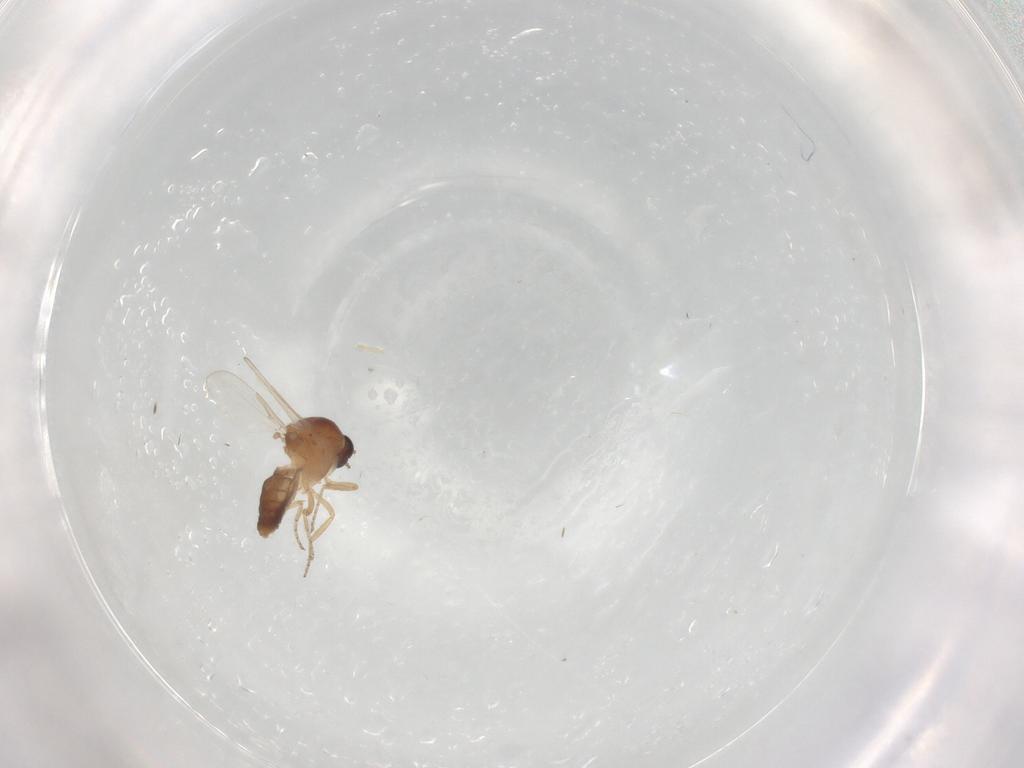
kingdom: Animalia
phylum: Arthropoda
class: Insecta
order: Diptera
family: Ceratopogonidae
